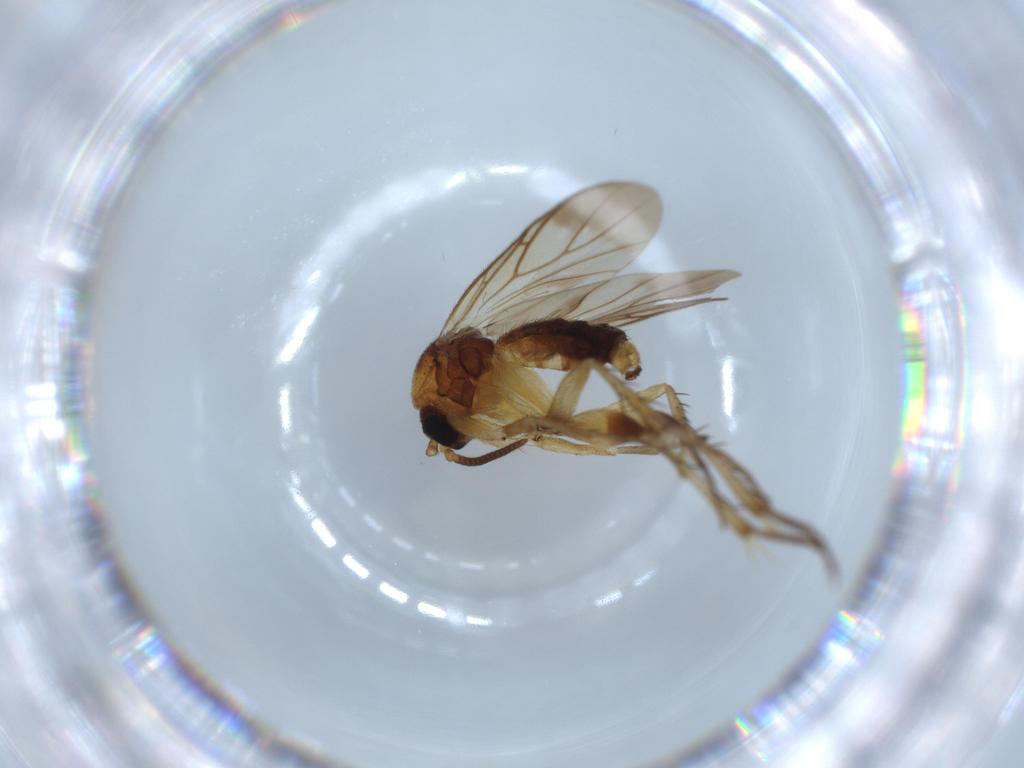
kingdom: Animalia
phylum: Arthropoda
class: Insecta
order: Diptera
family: Mycetophilidae
